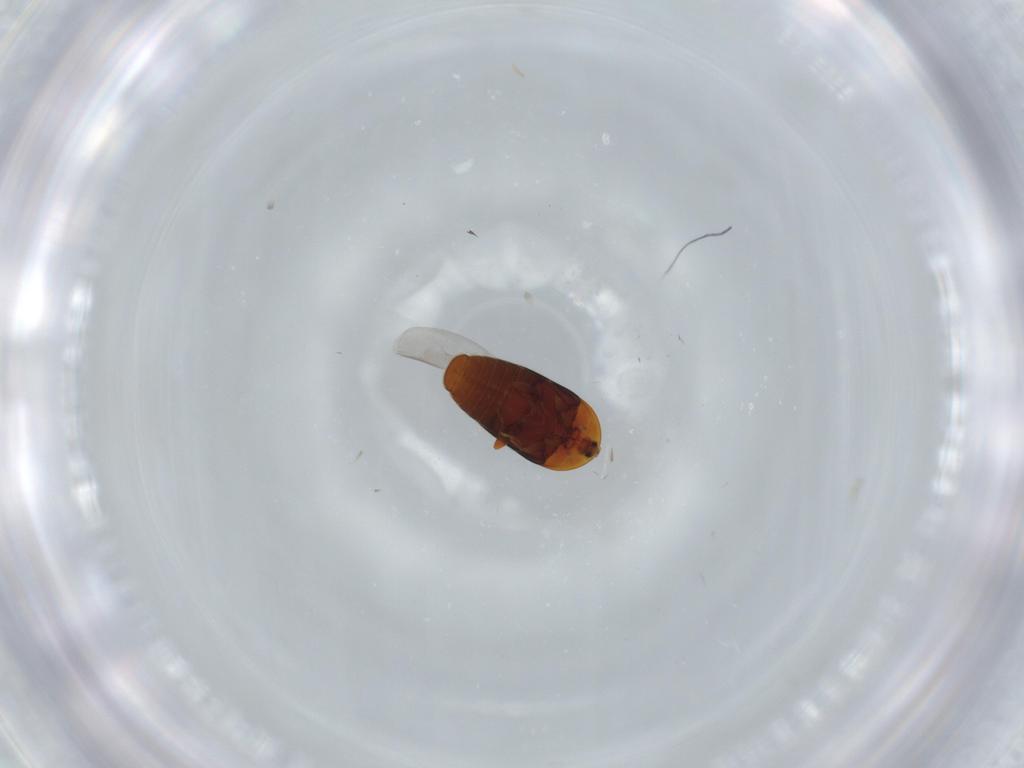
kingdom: Animalia
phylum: Arthropoda
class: Insecta
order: Coleoptera
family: Corylophidae
